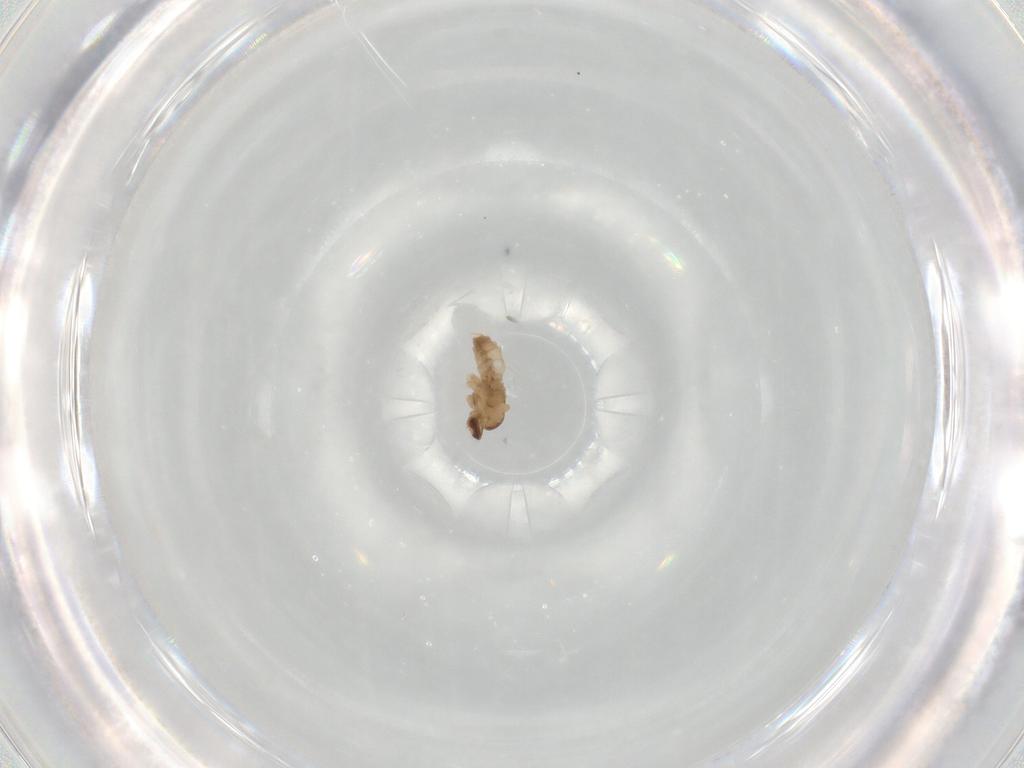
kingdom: Animalia
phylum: Arthropoda
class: Insecta
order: Diptera
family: Cecidomyiidae
